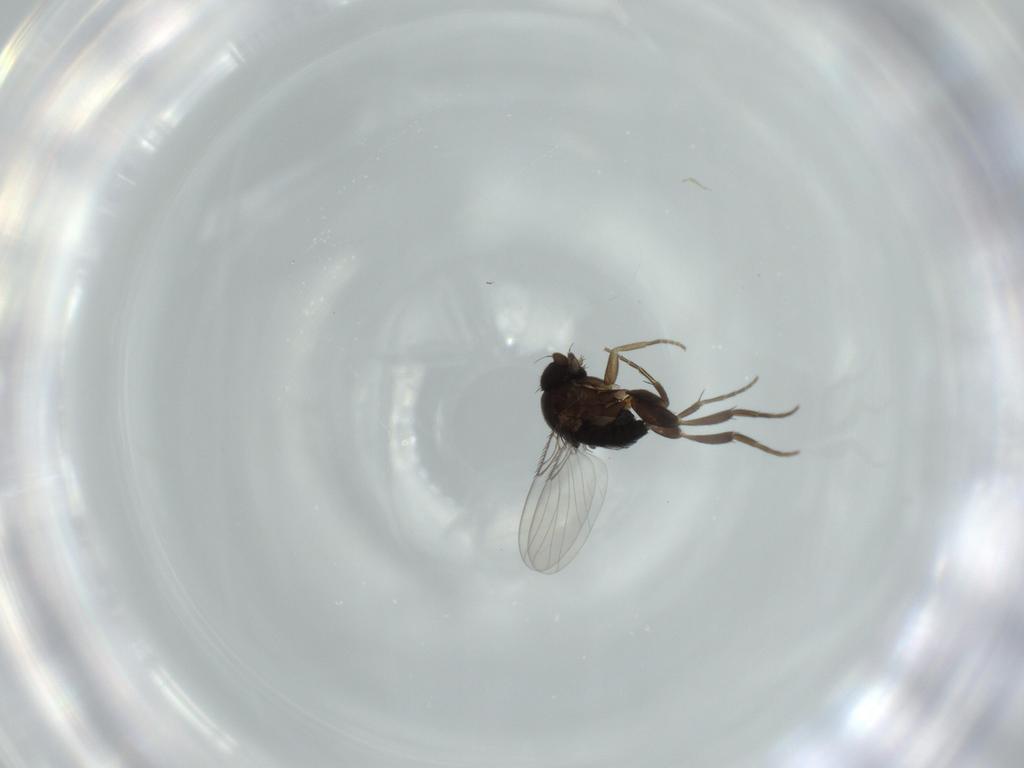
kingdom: Animalia
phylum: Arthropoda
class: Insecta
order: Diptera
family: Phoridae
